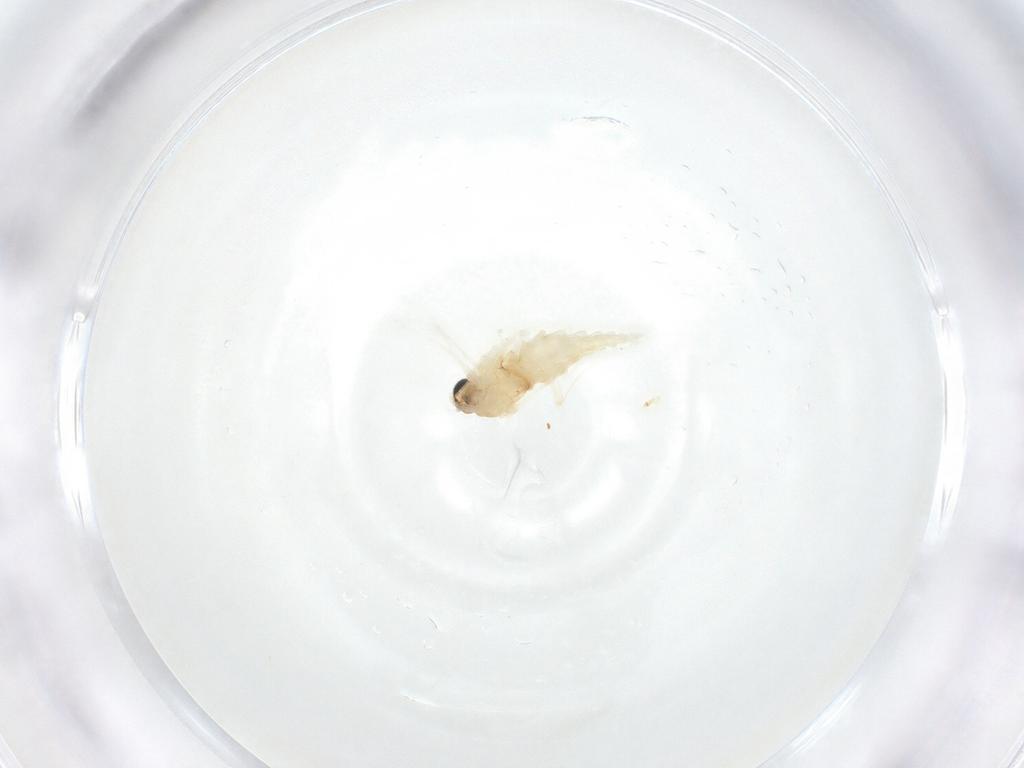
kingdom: Animalia
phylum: Arthropoda
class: Insecta
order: Diptera
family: Sciaridae
